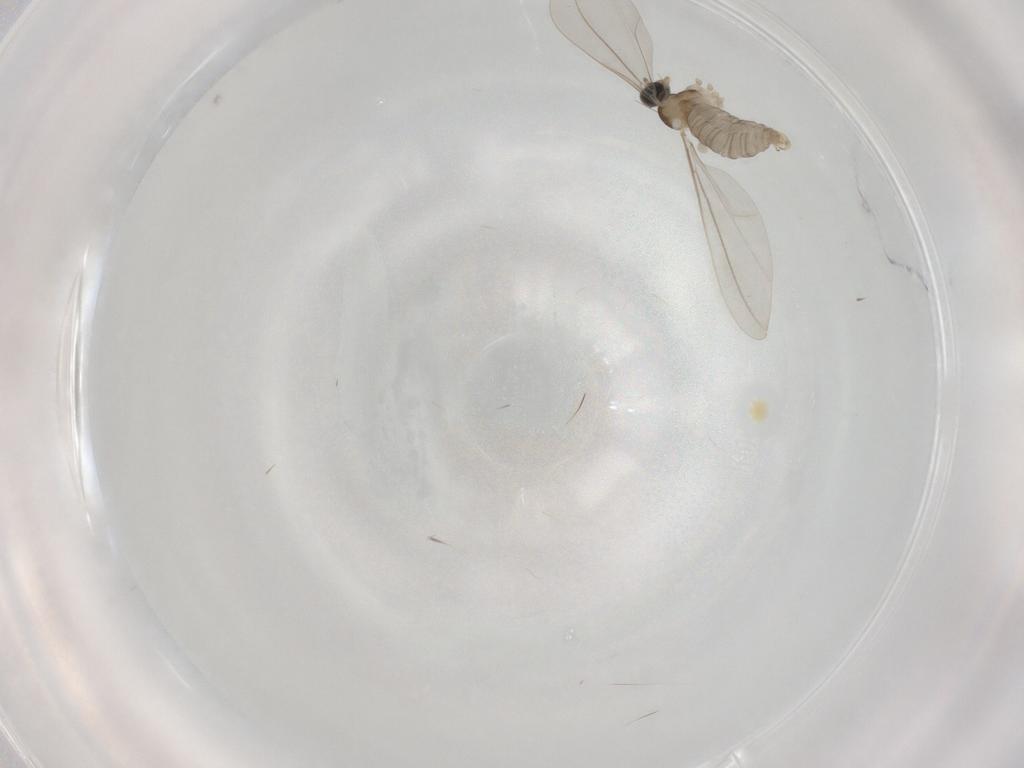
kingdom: Animalia
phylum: Arthropoda
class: Insecta
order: Diptera
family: Cecidomyiidae
